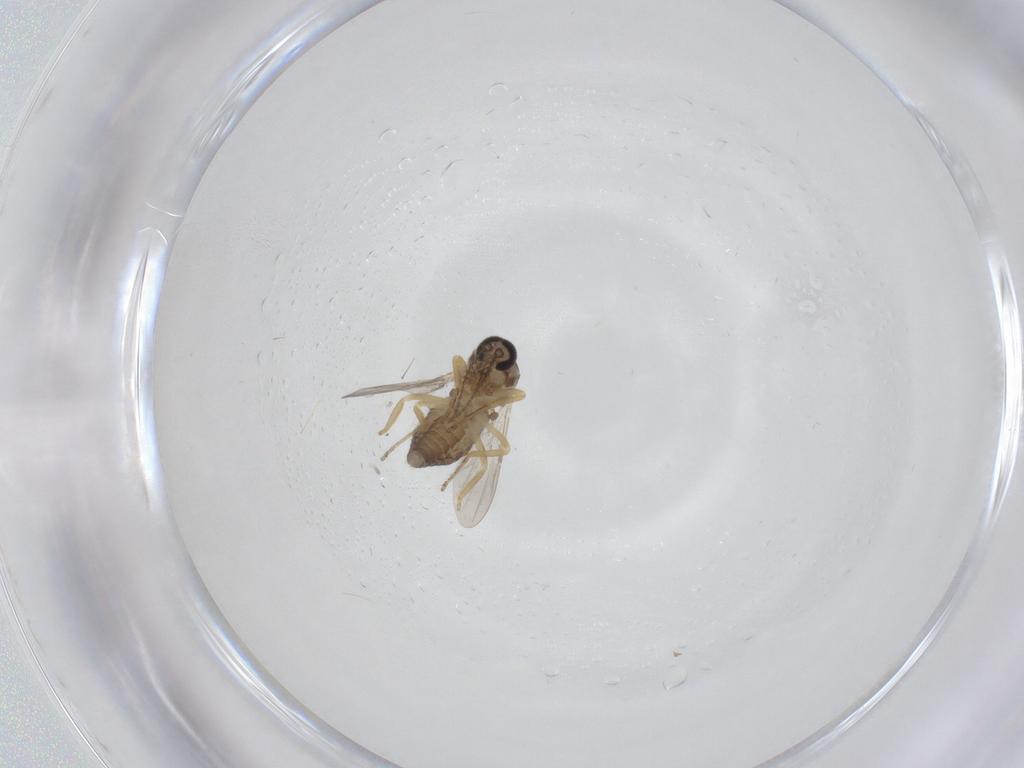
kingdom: Animalia
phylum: Arthropoda
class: Insecta
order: Diptera
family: Ceratopogonidae
